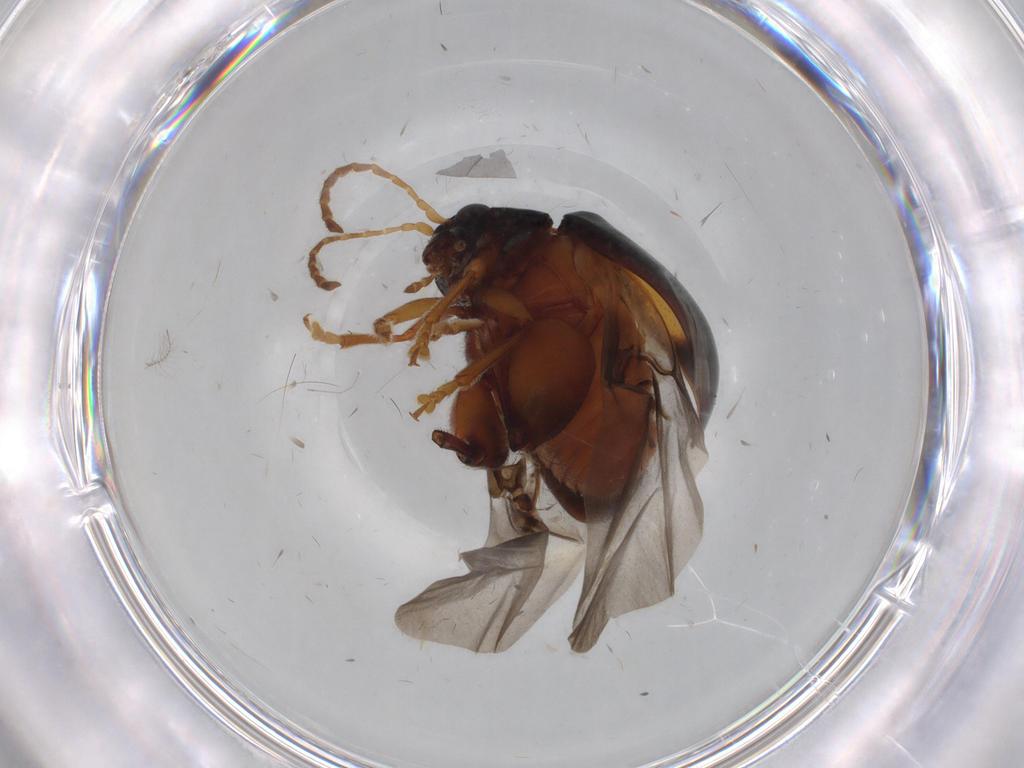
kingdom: Animalia
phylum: Arthropoda
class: Insecta
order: Coleoptera
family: Chrysomelidae
